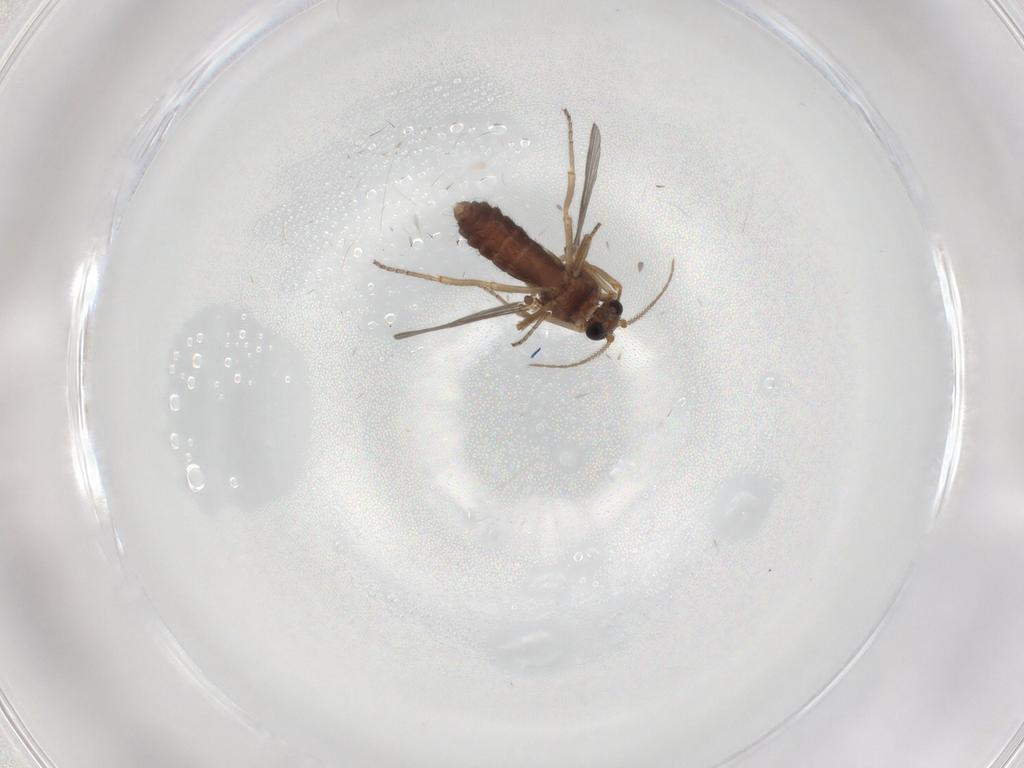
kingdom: Animalia
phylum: Arthropoda
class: Insecta
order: Diptera
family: Ceratopogonidae
